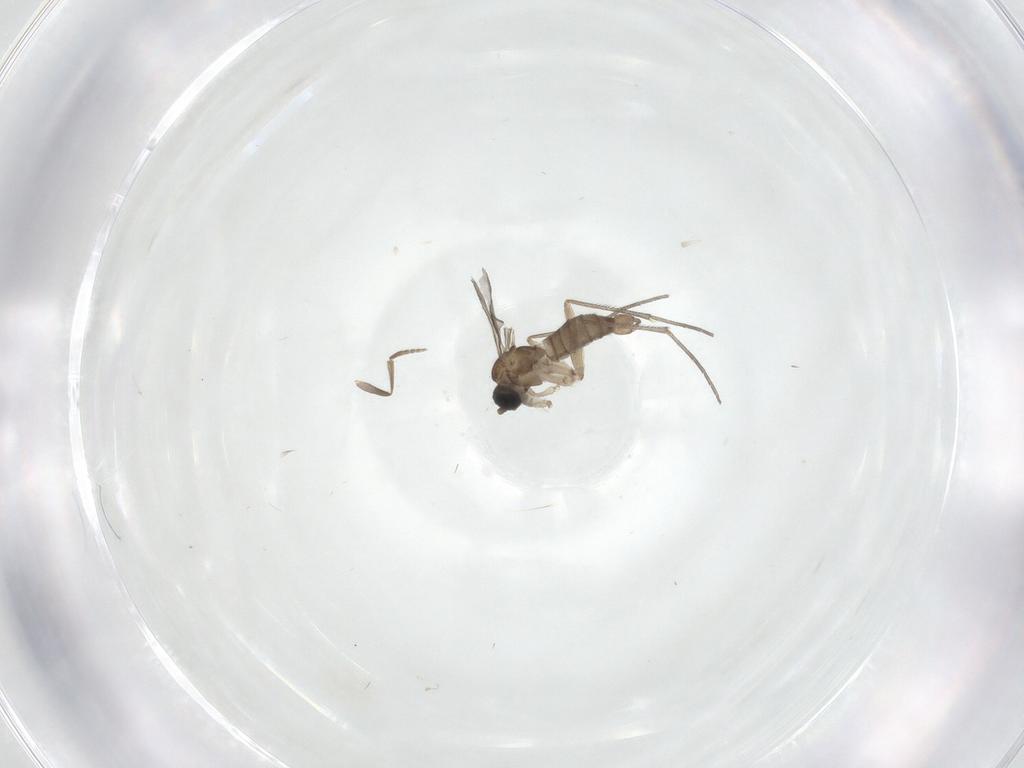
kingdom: Animalia
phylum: Arthropoda
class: Insecta
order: Diptera
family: Sciaridae
